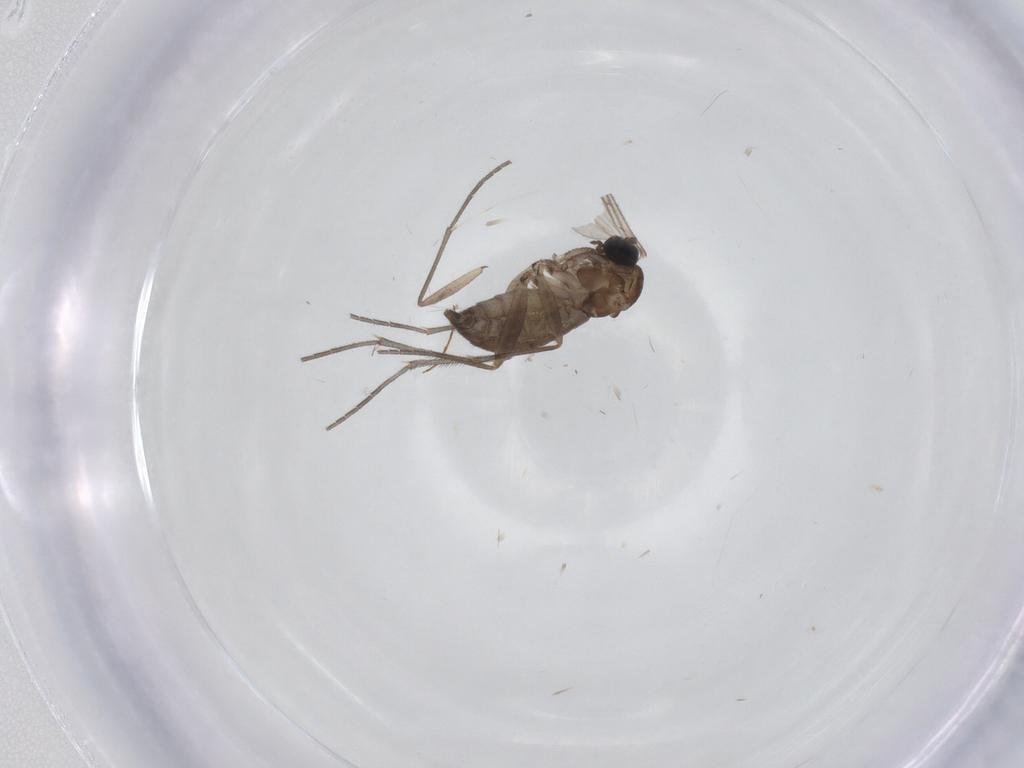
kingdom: Animalia
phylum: Arthropoda
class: Insecta
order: Diptera
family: Sciaridae
